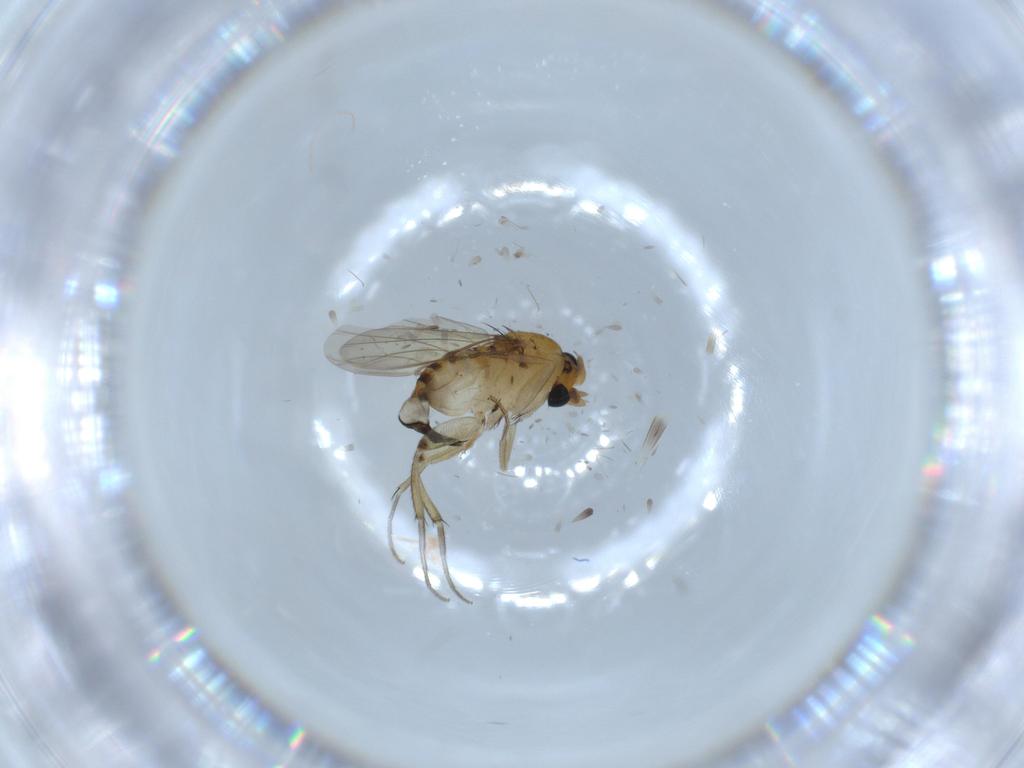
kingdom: Animalia
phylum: Arthropoda
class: Insecta
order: Diptera
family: Phoridae
